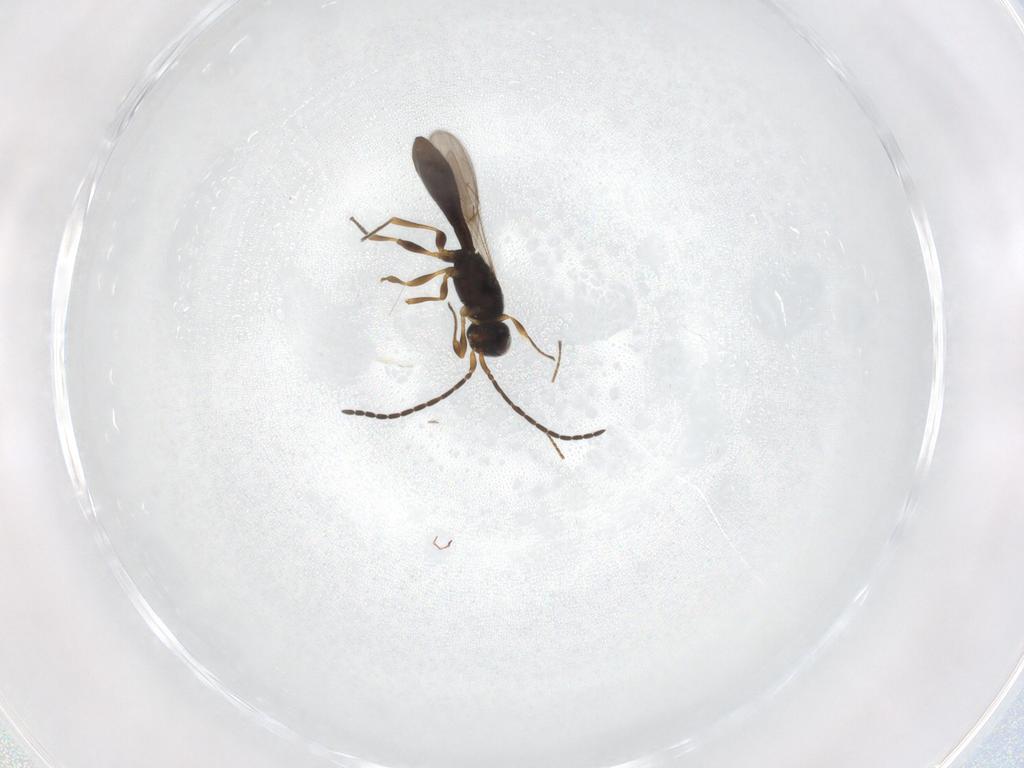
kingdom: Animalia
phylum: Arthropoda
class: Insecta
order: Hymenoptera
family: Scelionidae
